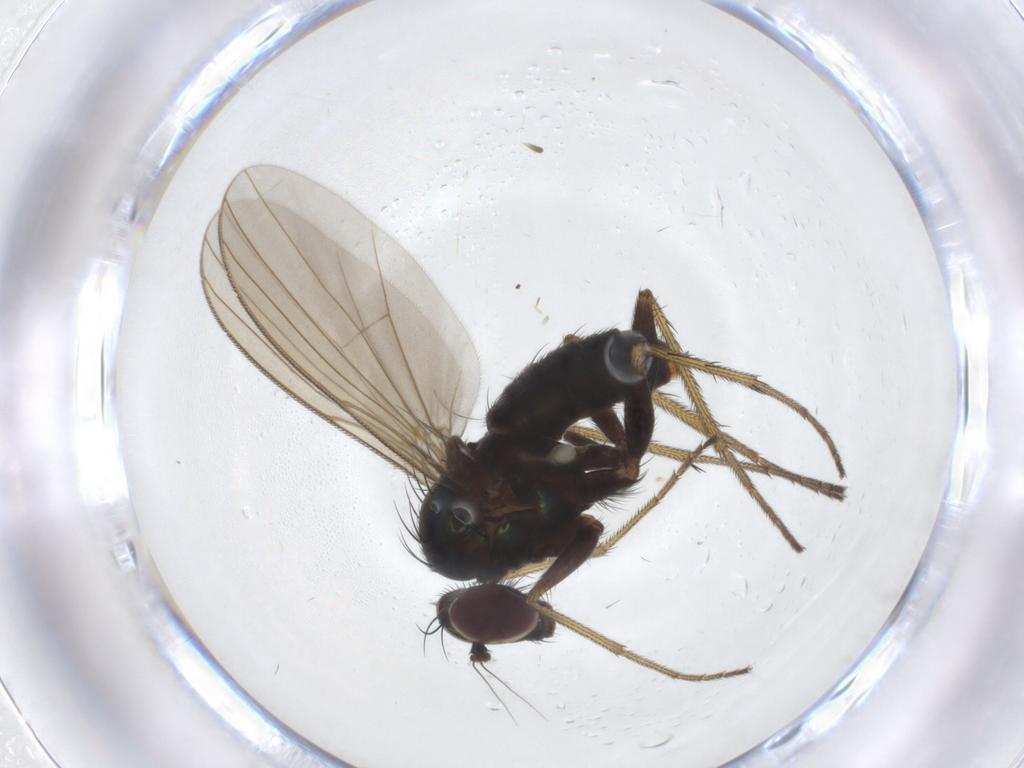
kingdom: Animalia
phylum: Arthropoda
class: Insecta
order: Diptera
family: Dolichopodidae
